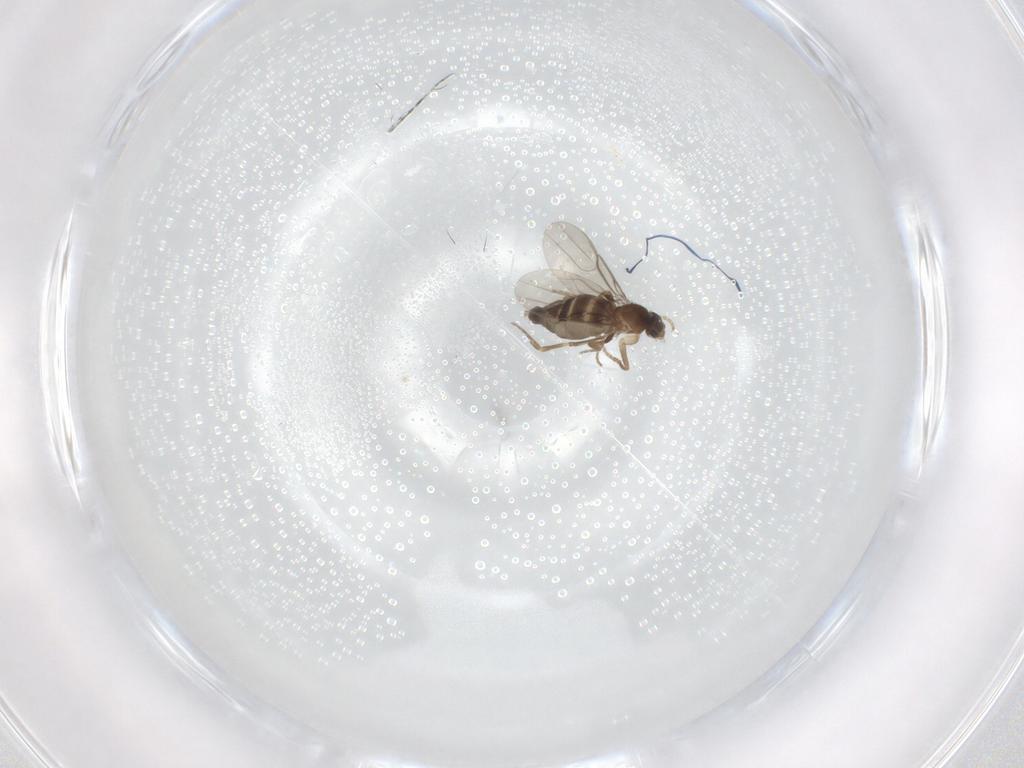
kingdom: Animalia
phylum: Arthropoda
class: Insecta
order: Diptera
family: Phoridae
